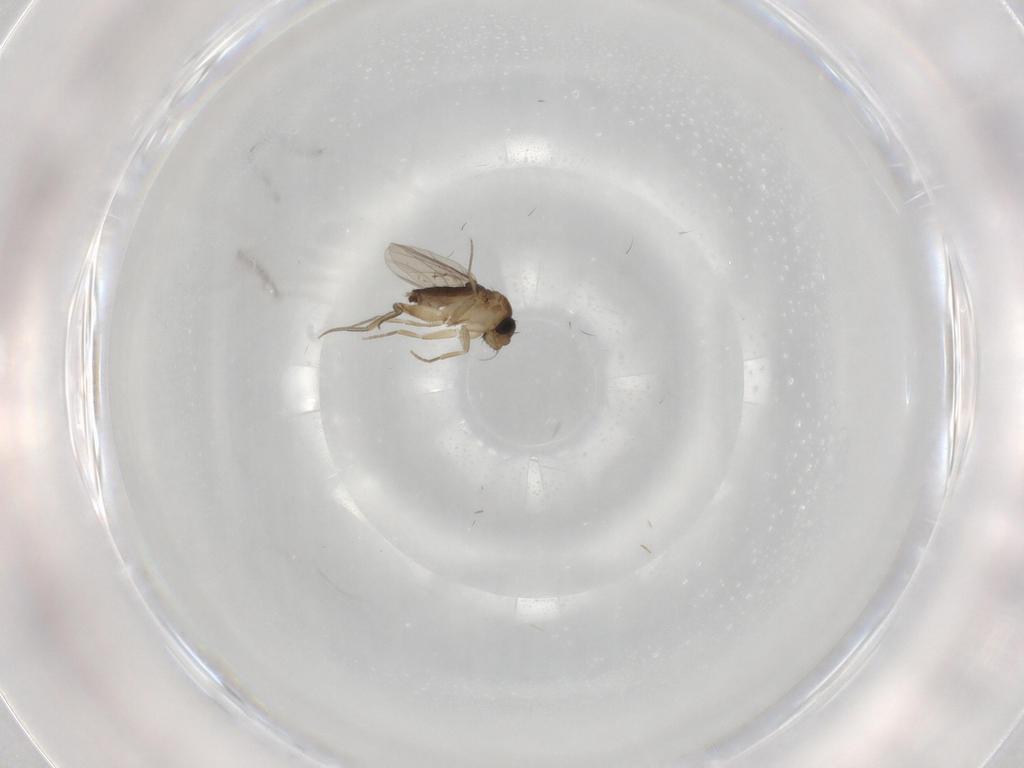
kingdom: Animalia
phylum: Arthropoda
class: Insecta
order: Diptera
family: Phoridae
